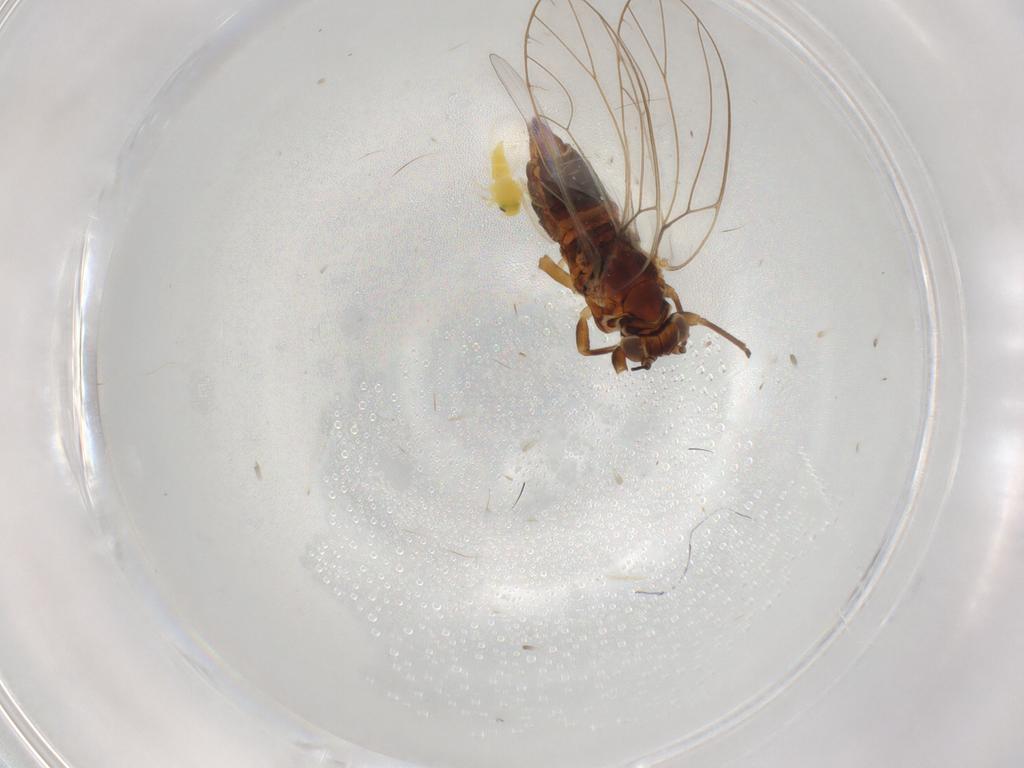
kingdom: Animalia
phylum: Arthropoda
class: Insecta
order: Hemiptera
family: Triozidae
